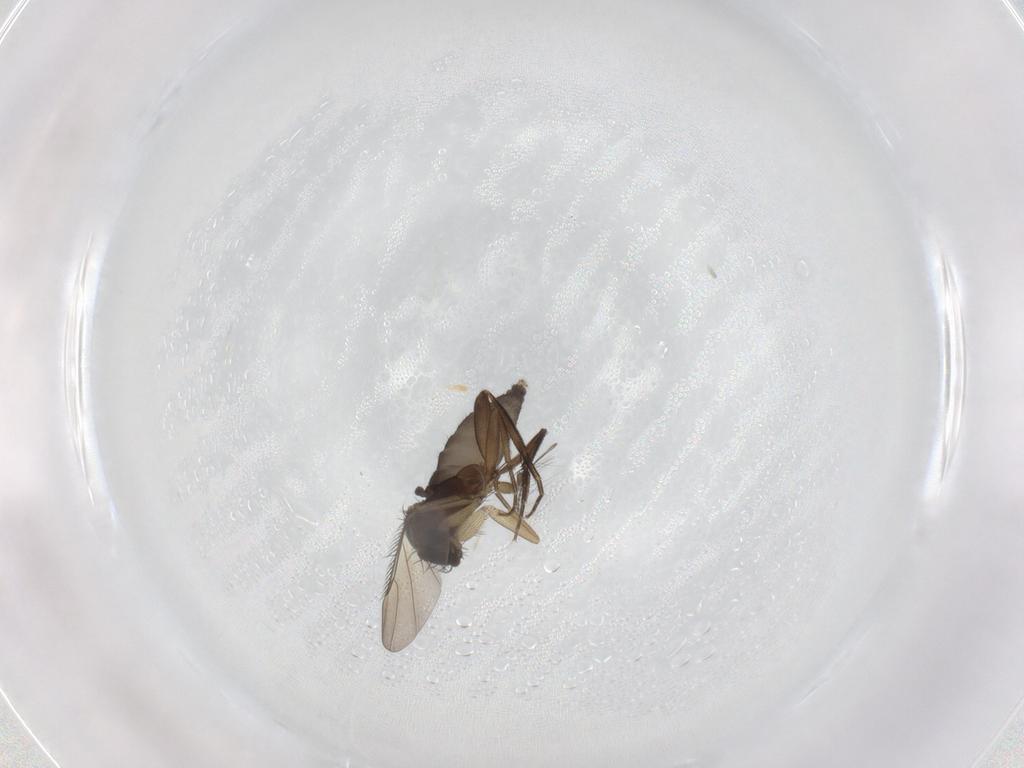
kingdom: Animalia
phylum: Arthropoda
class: Insecta
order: Diptera
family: Phoridae
